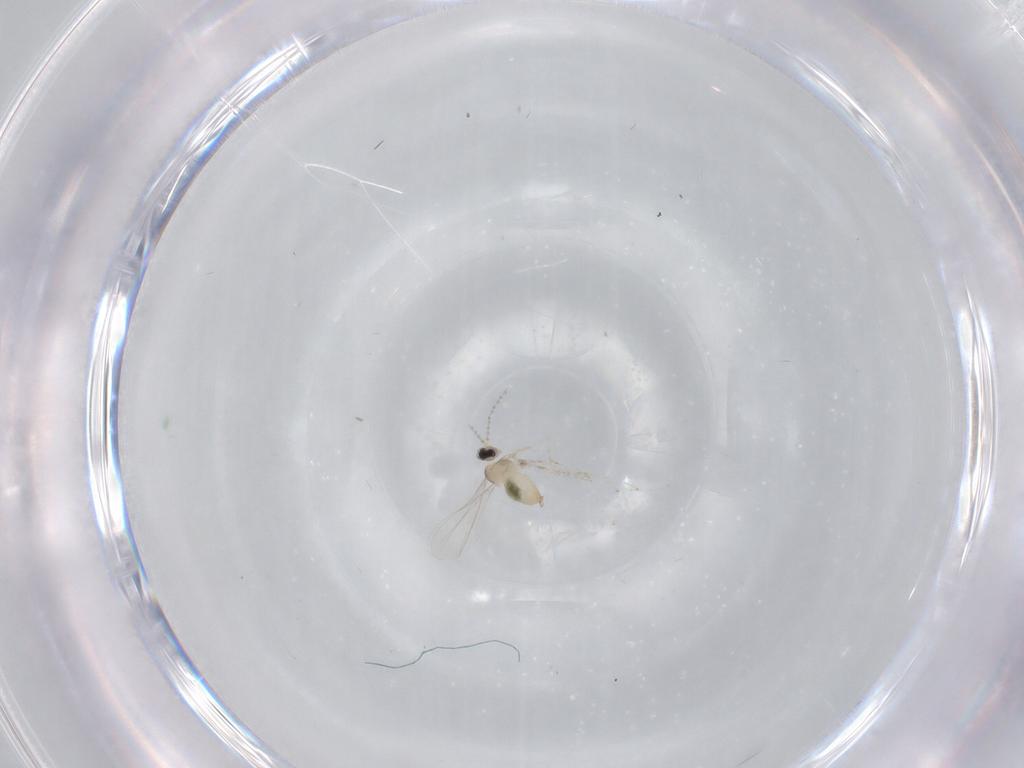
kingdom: Animalia
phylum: Arthropoda
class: Insecta
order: Diptera
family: Cecidomyiidae
